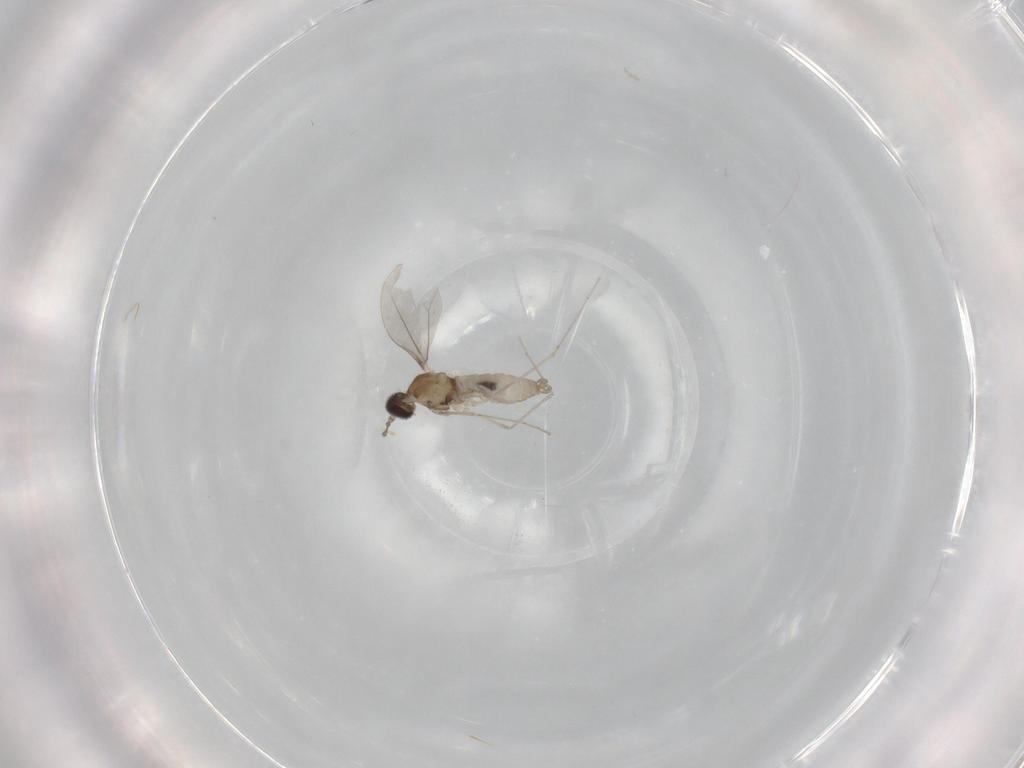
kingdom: Animalia
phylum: Arthropoda
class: Insecta
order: Diptera
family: Cecidomyiidae
